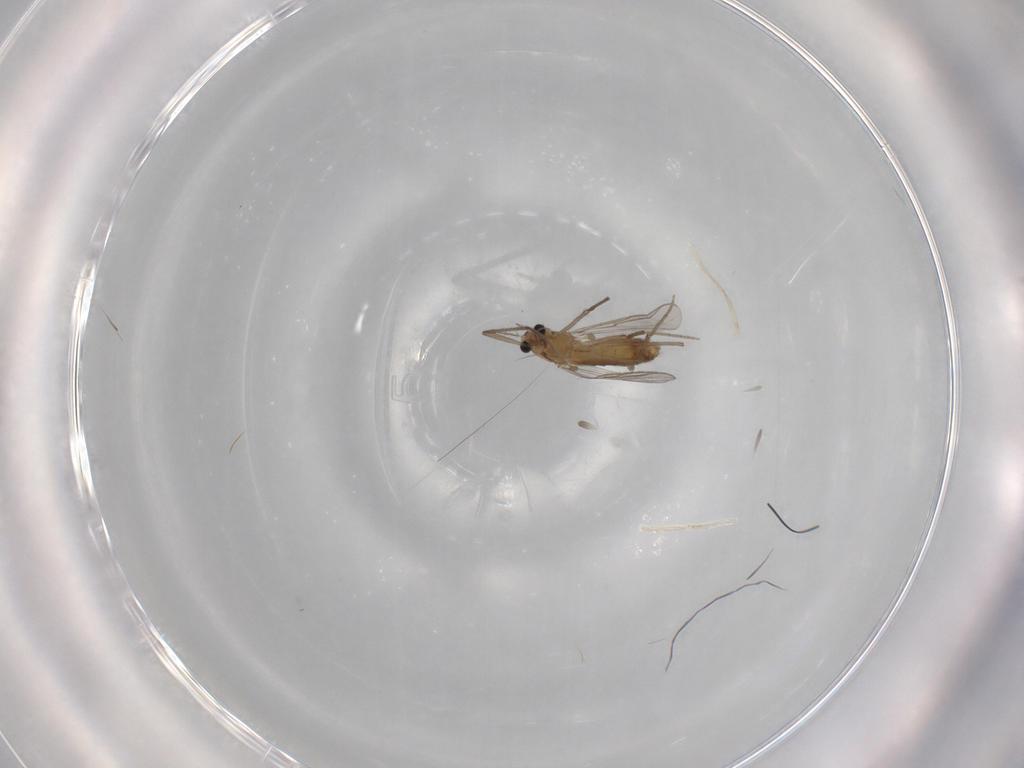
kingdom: Animalia
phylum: Arthropoda
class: Insecta
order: Diptera
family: Chironomidae
